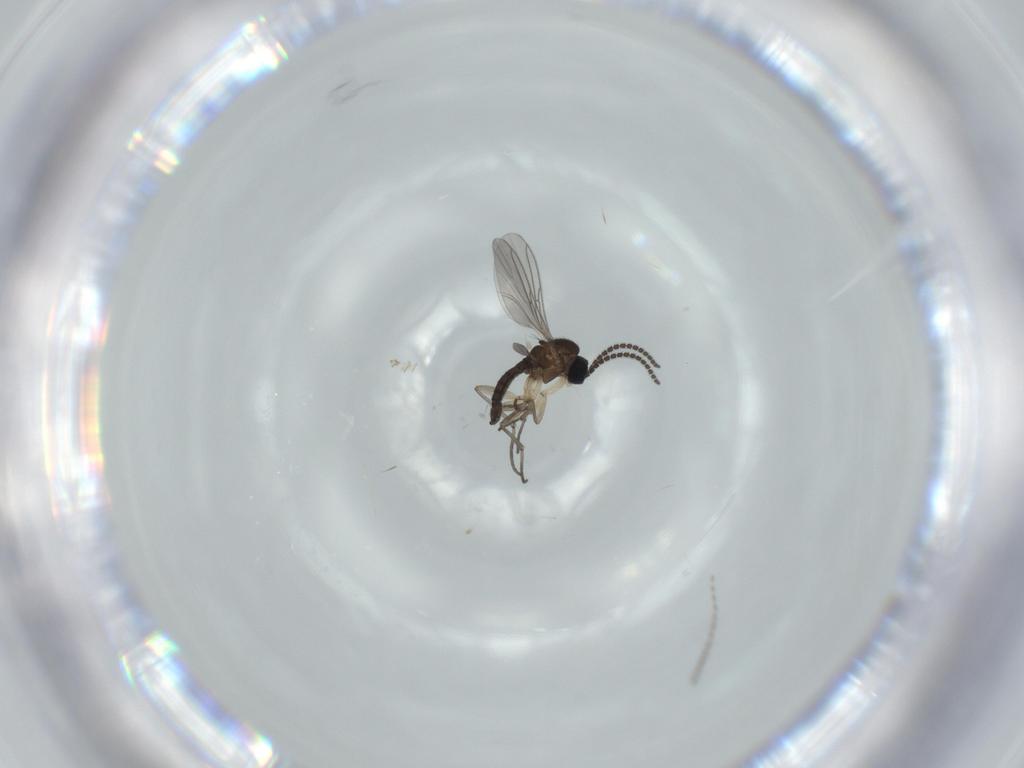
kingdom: Animalia
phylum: Arthropoda
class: Insecta
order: Diptera
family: Sciaridae
